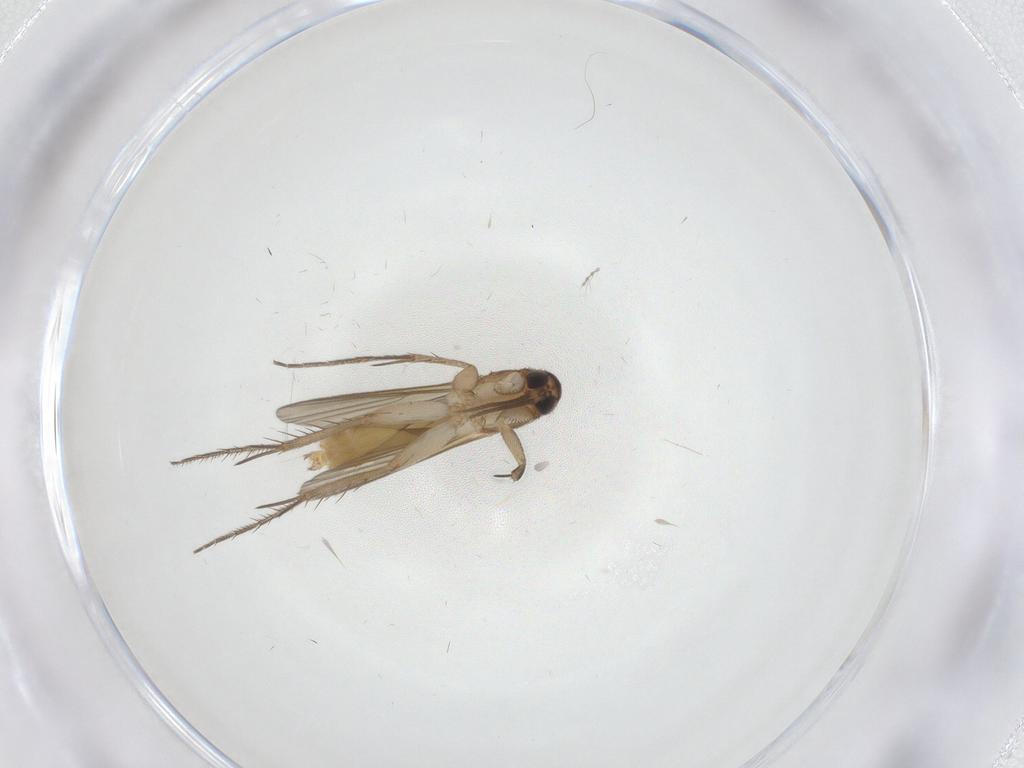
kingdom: Animalia
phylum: Arthropoda
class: Insecta
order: Diptera
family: Mycetophilidae
